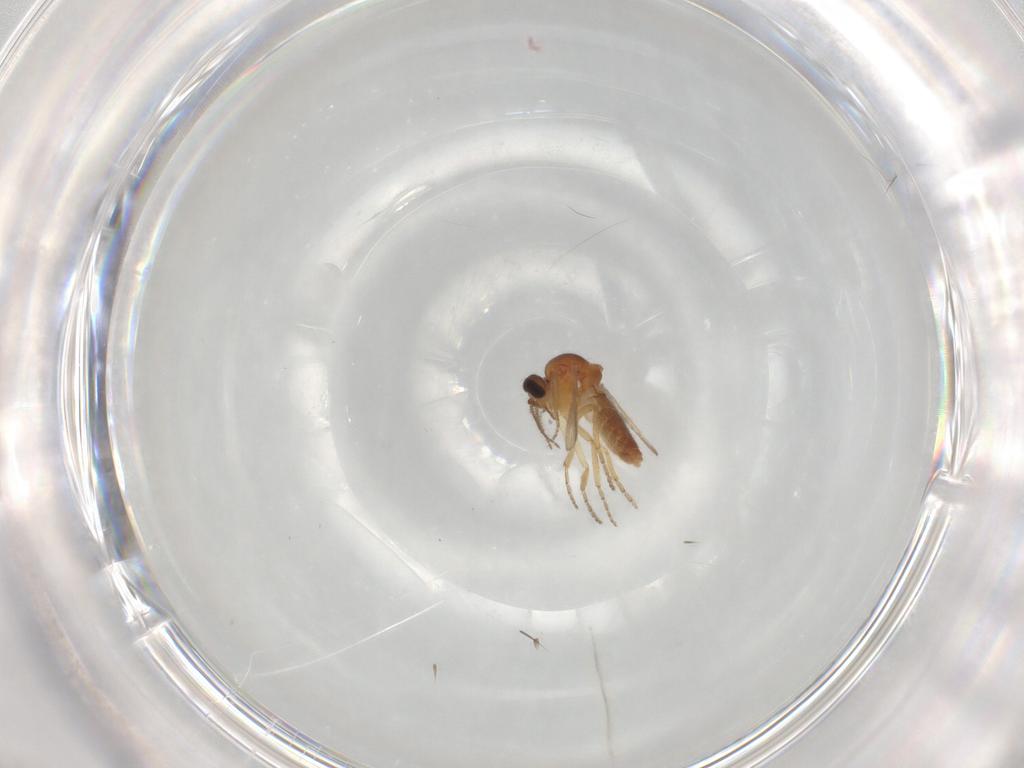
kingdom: Animalia
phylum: Arthropoda
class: Insecta
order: Diptera
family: Ceratopogonidae
